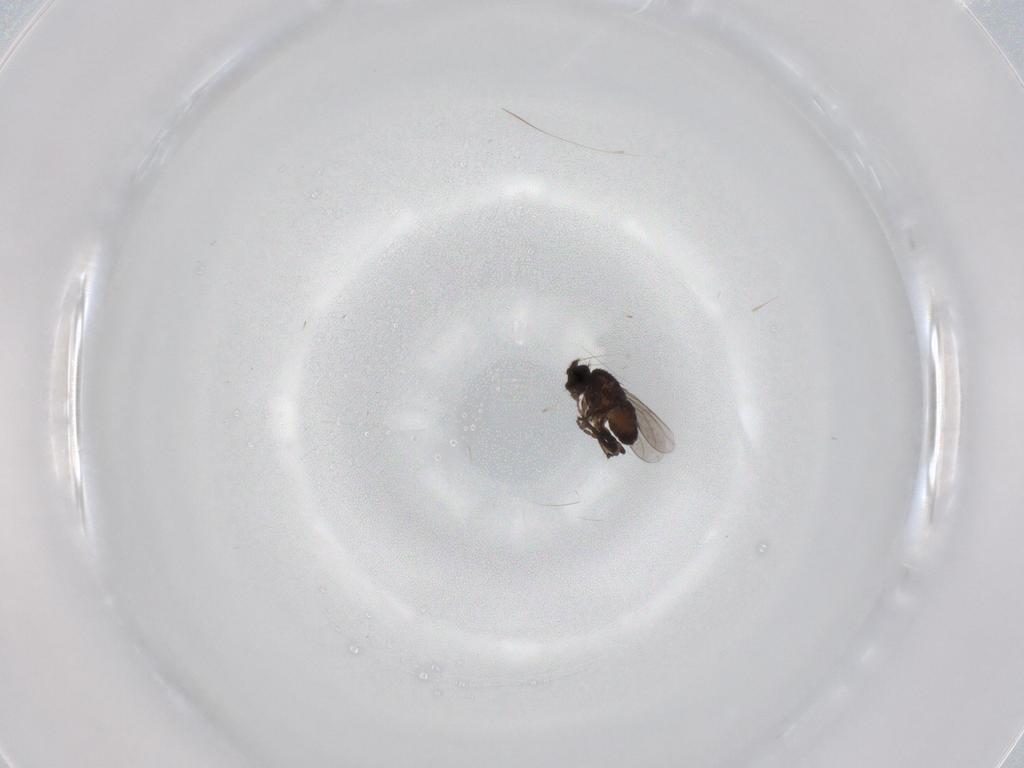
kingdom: Animalia
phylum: Arthropoda
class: Insecta
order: Diptera
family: Sphaeroceridae
